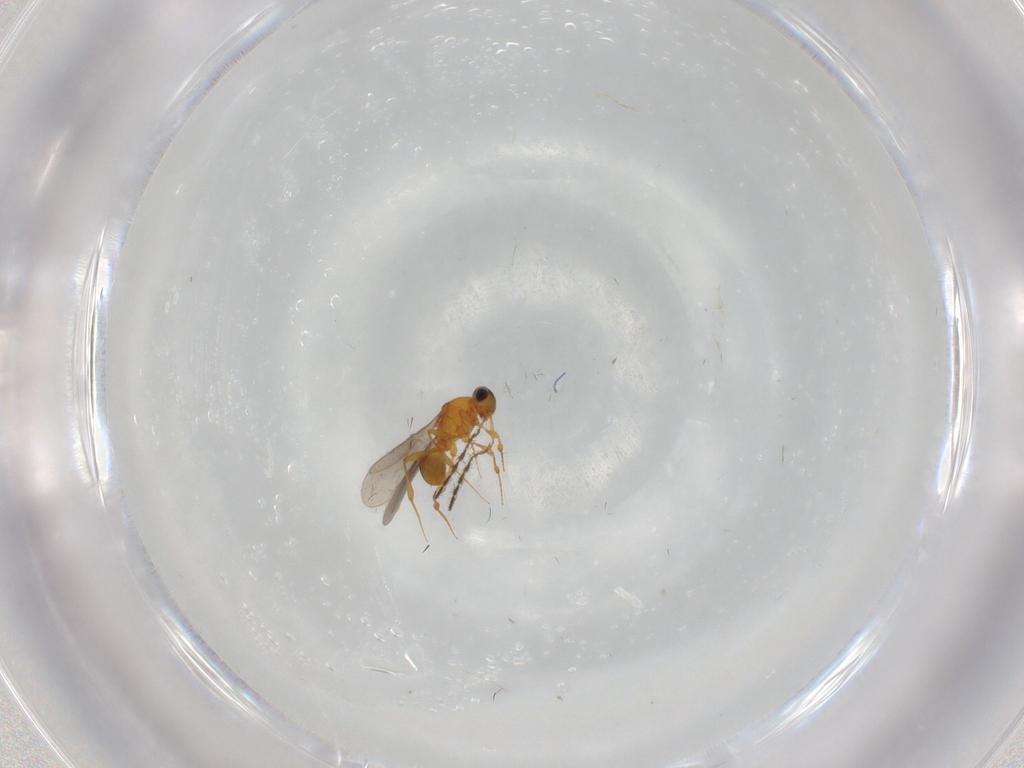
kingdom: Animalia
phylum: Arthropoda
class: Insecta
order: Hymenoptera
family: Platygastridae
